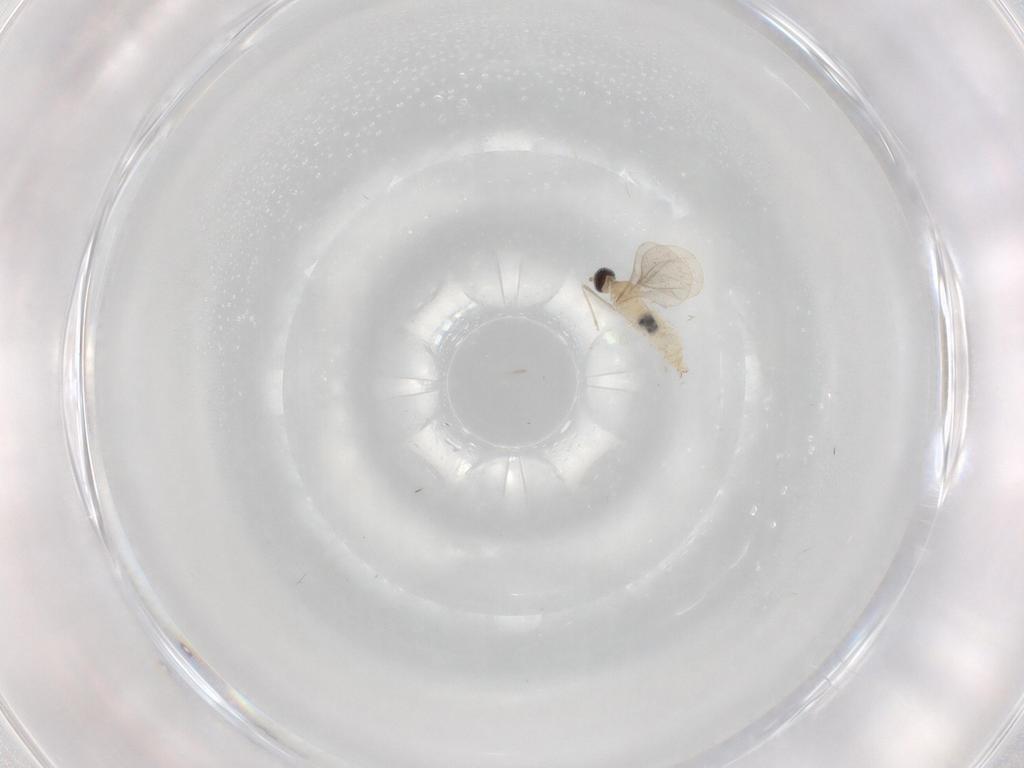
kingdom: Animalia
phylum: Arthropoda
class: Insecta
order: Diptera
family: Cecidomyiidae
